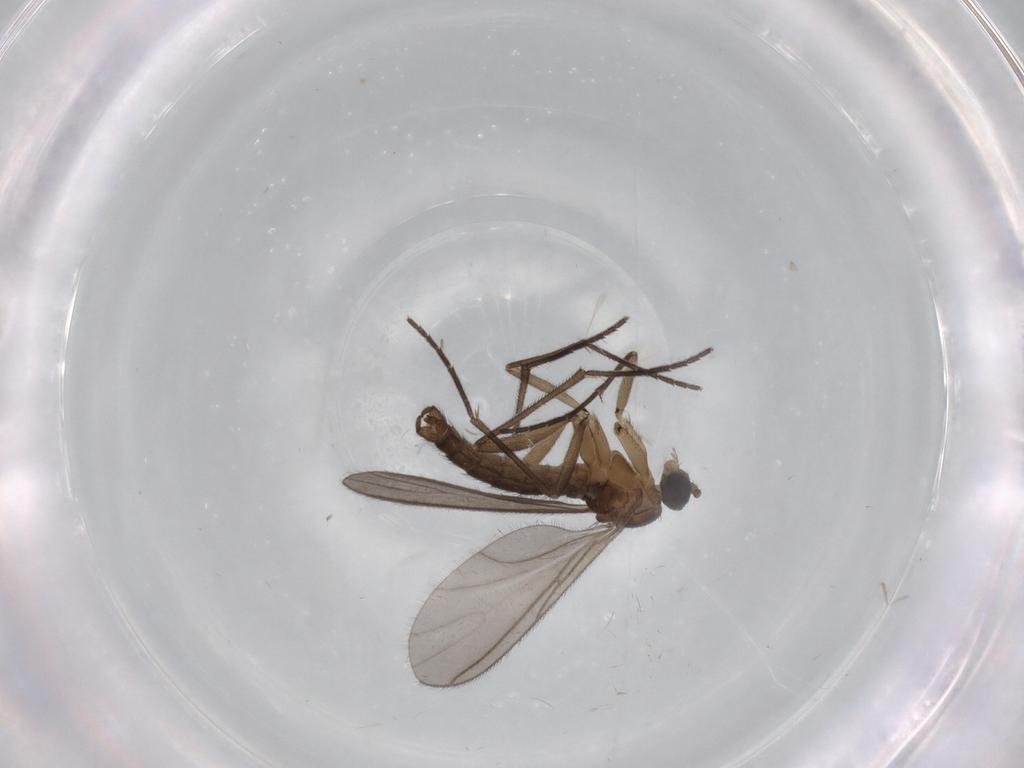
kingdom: Animalia
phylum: Arthropoda
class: Insecta
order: Diptera
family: Sciaridae
